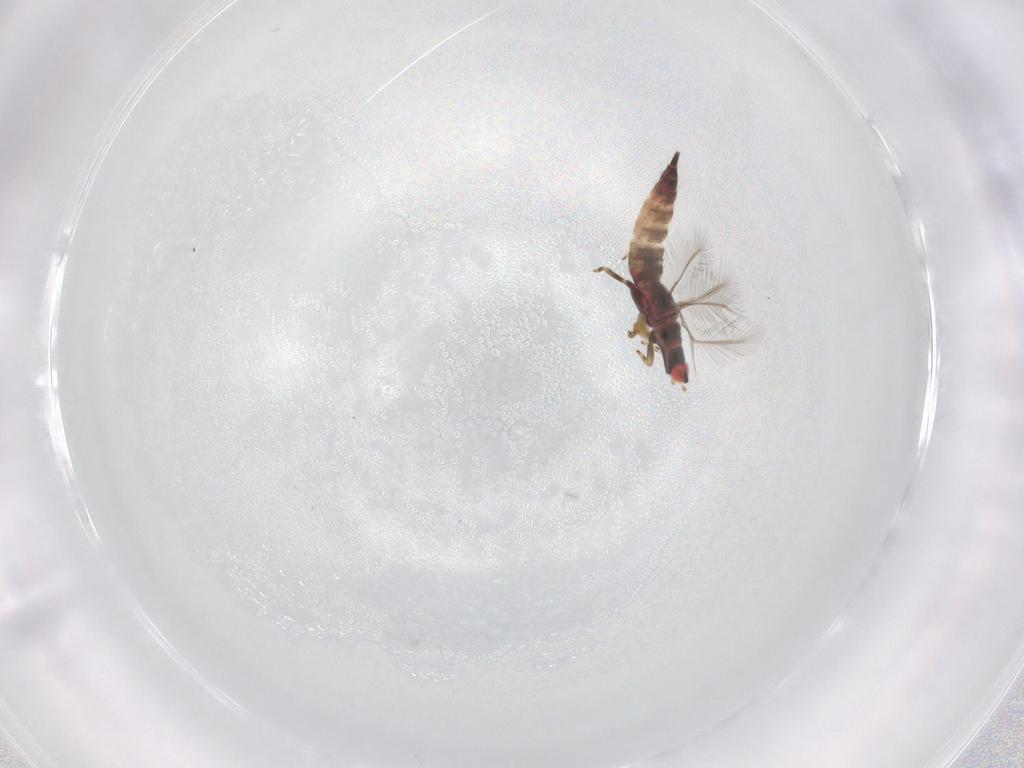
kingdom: Animalia
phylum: Arthropoda
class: Insecta
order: Thysanoptera
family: Phlaeothripidae
